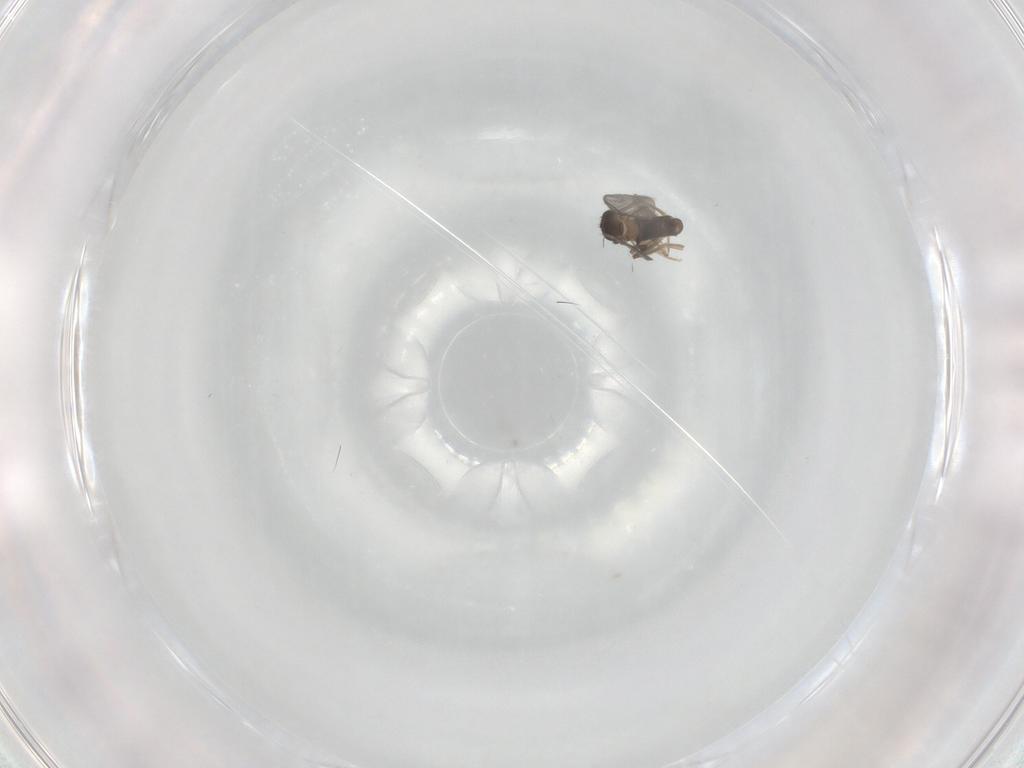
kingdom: Animalia
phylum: Arthropoda
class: Insecta
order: Diptera
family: Phoridae
